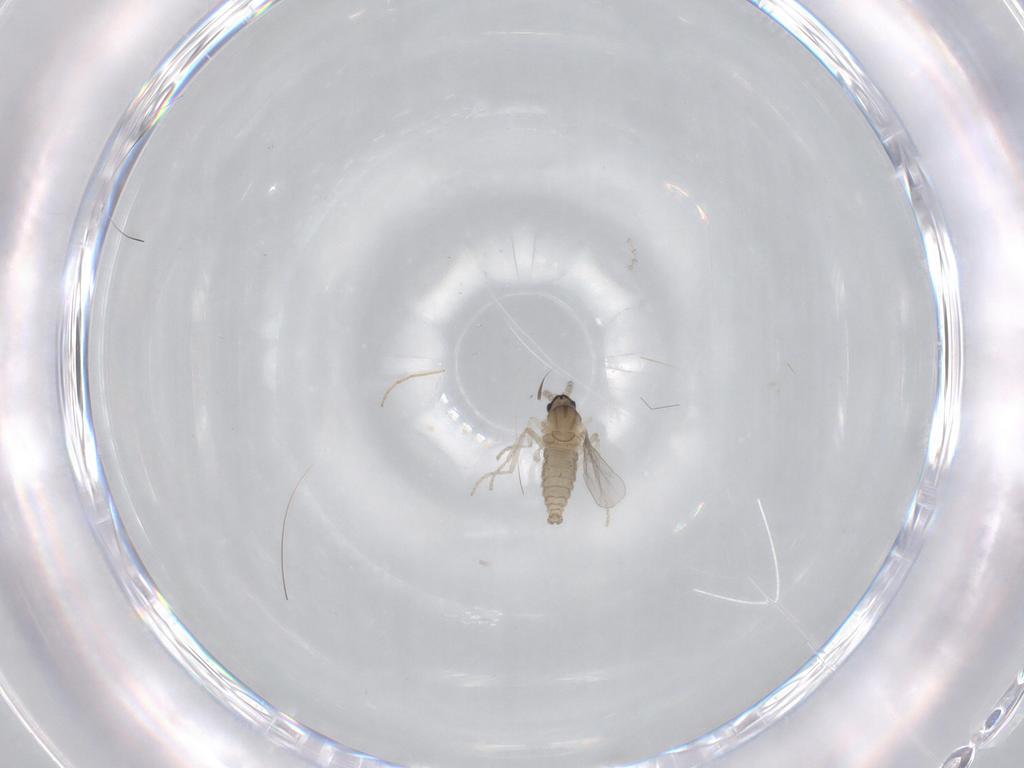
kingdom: Animalia
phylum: Arthropoda
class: Insecta
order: Diptera
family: Cecidomyiidae
